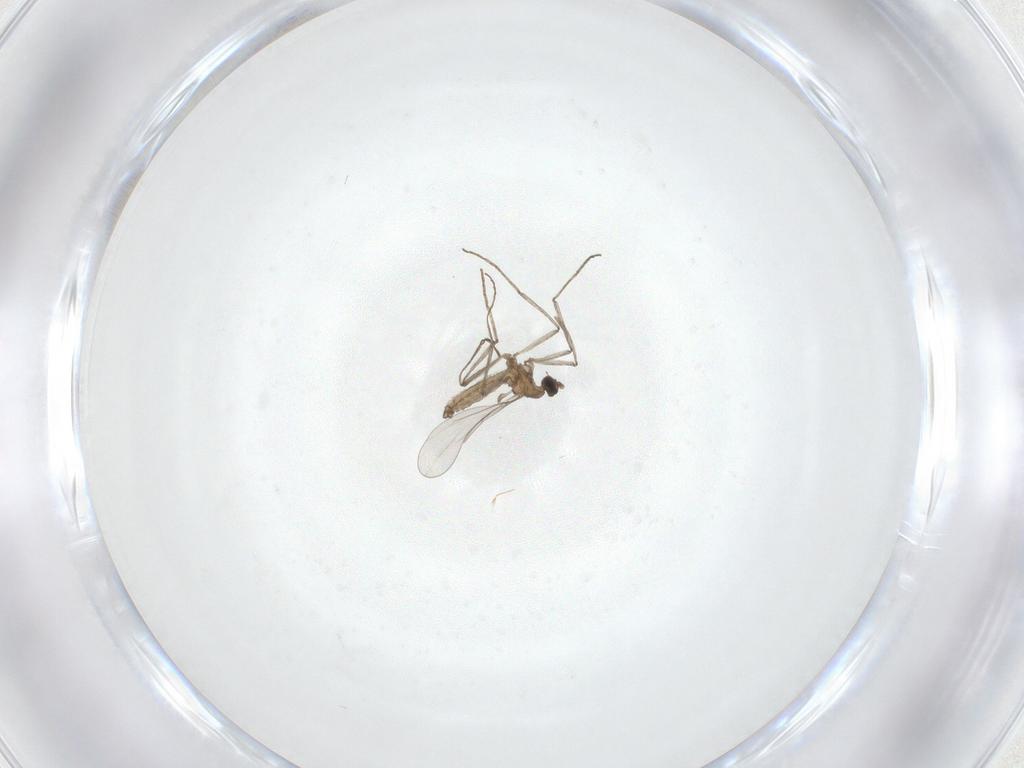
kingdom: Animalia
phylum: Arthropoda
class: Insecta
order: Diptera
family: Cecidomyiidae
